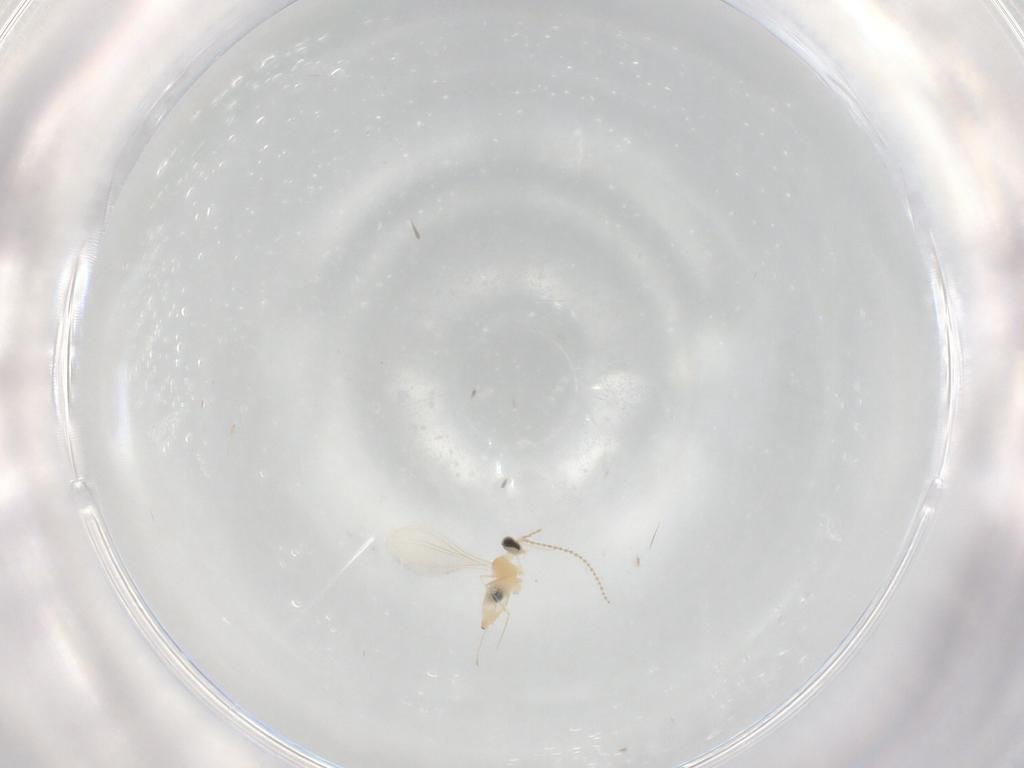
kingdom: Animalia
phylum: Arthropoda
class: Insecta
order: Diptera
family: Cecidomyiidae
